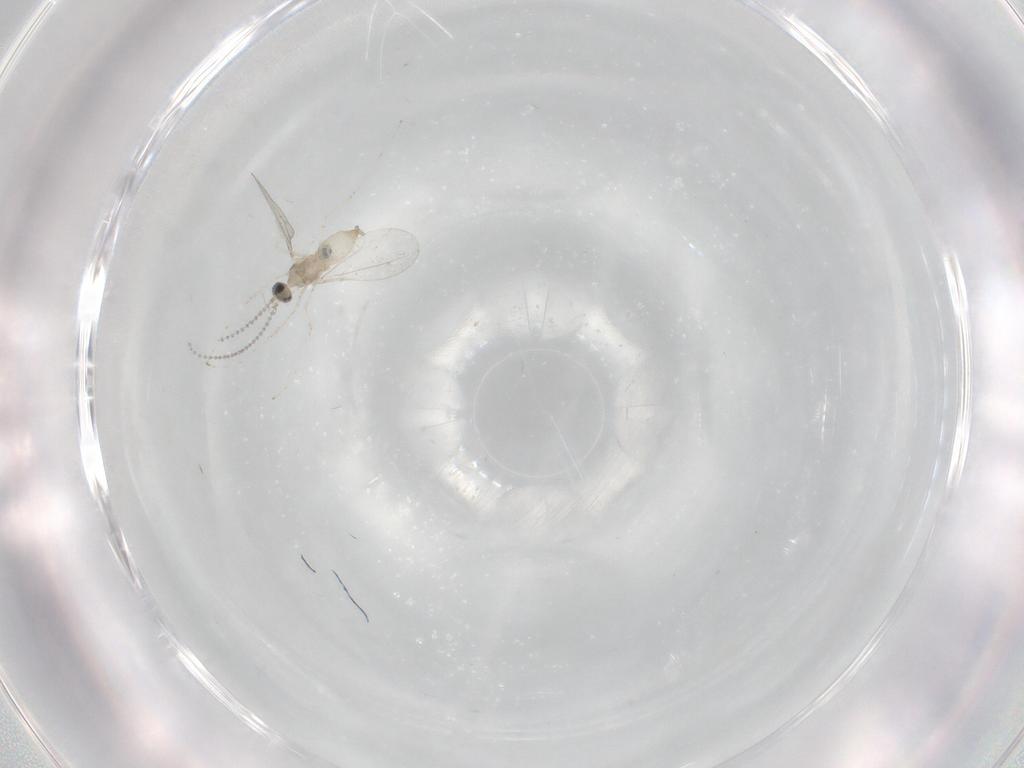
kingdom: Animalia
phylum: Arthropoda
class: Insecta
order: Diptera
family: Cecidomyiidae
